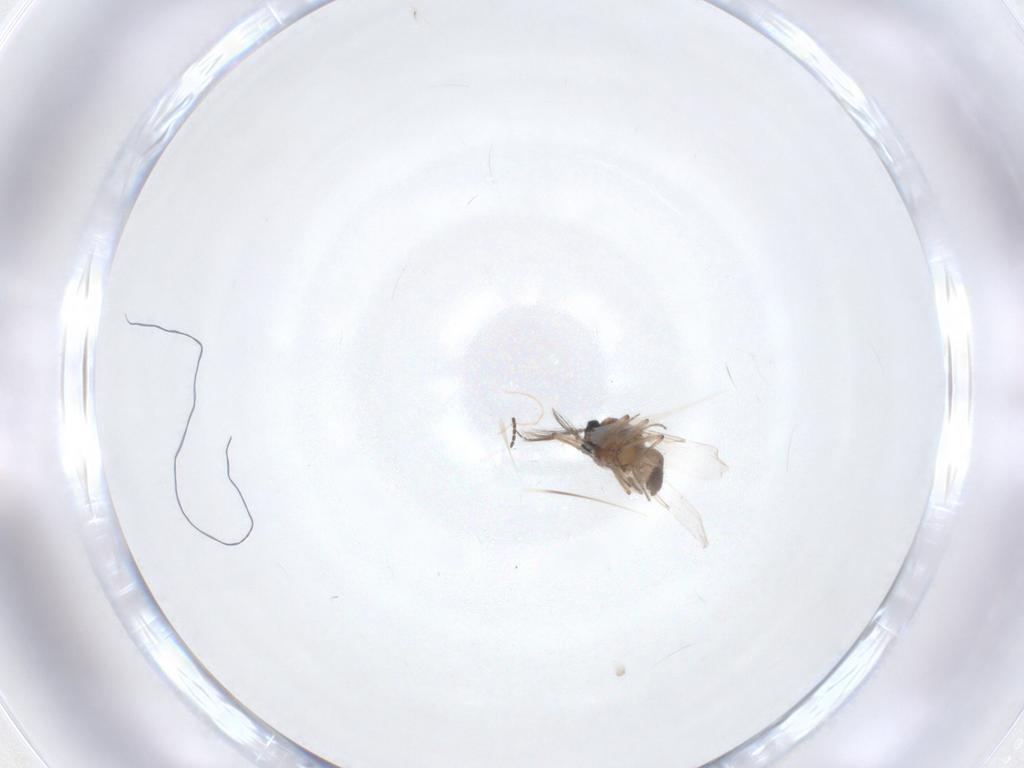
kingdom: Animalia
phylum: Arthropoda
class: Insecta
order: Diptera
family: Ceratopogonidae
